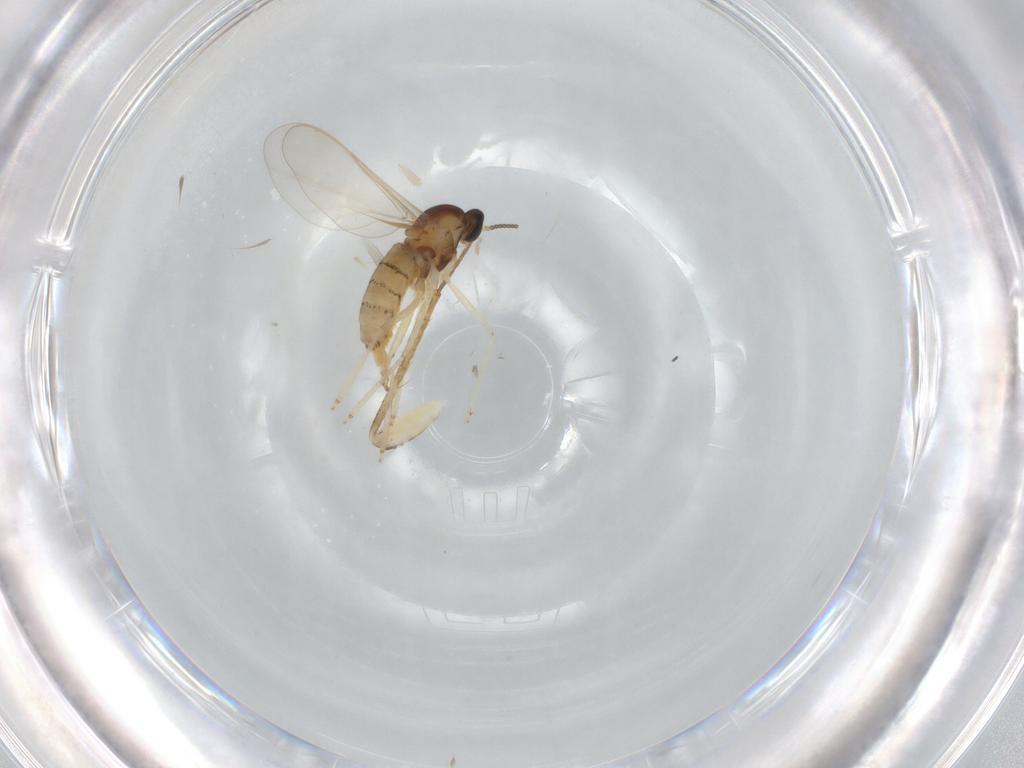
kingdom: Animalia
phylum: Arthropoda
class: Insecta
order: Diptera
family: Cecidomyiidae
